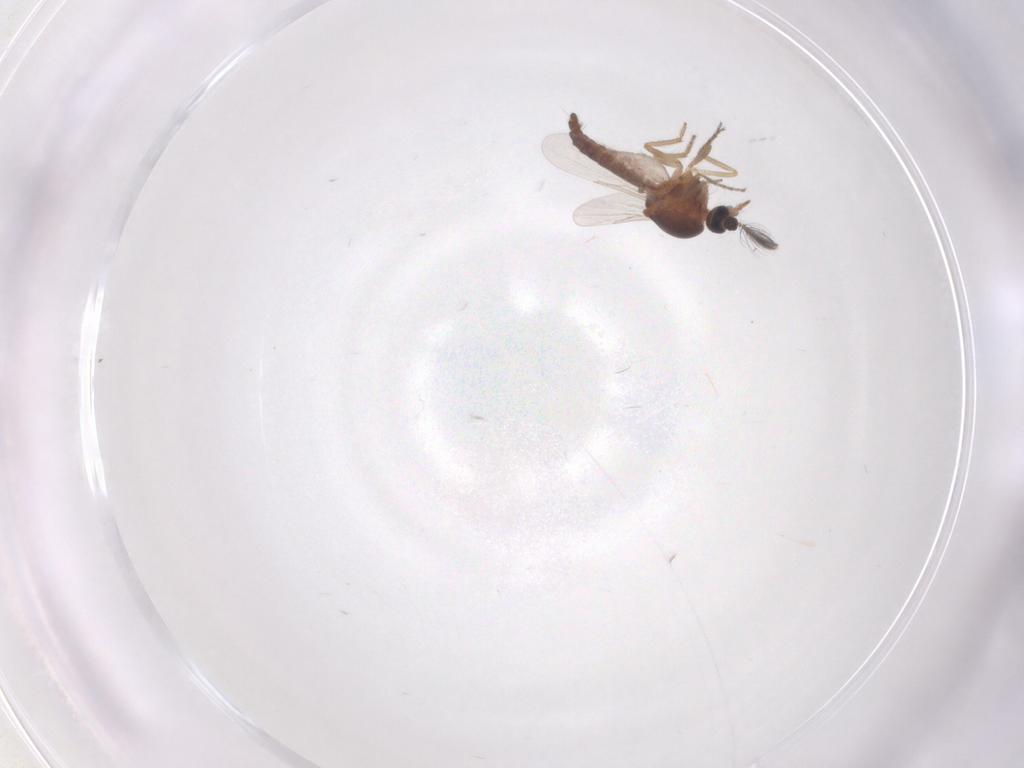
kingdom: Animalia
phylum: Arthropoda
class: Insecta
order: Diptera
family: Ceratopogonidae
